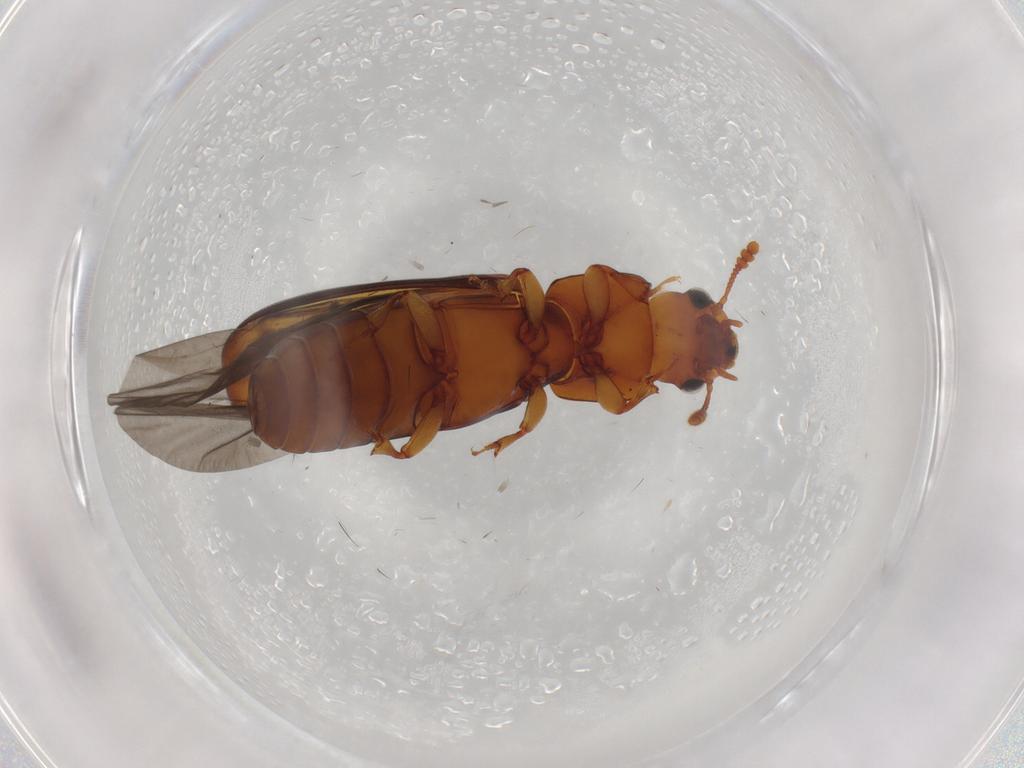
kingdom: Animalia
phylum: Arthropoda
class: Insecta
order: Coleoptera
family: Salpingidae
